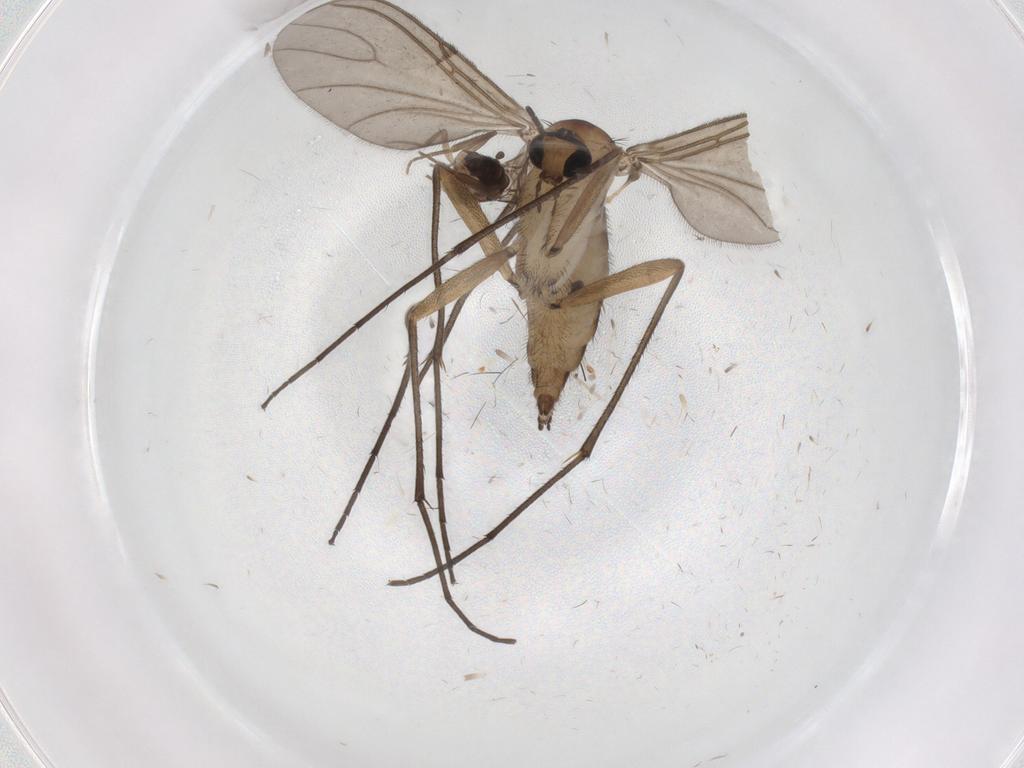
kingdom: Animalia
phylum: Arthropoda
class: Insecta
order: Diptera
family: Sciaridae
